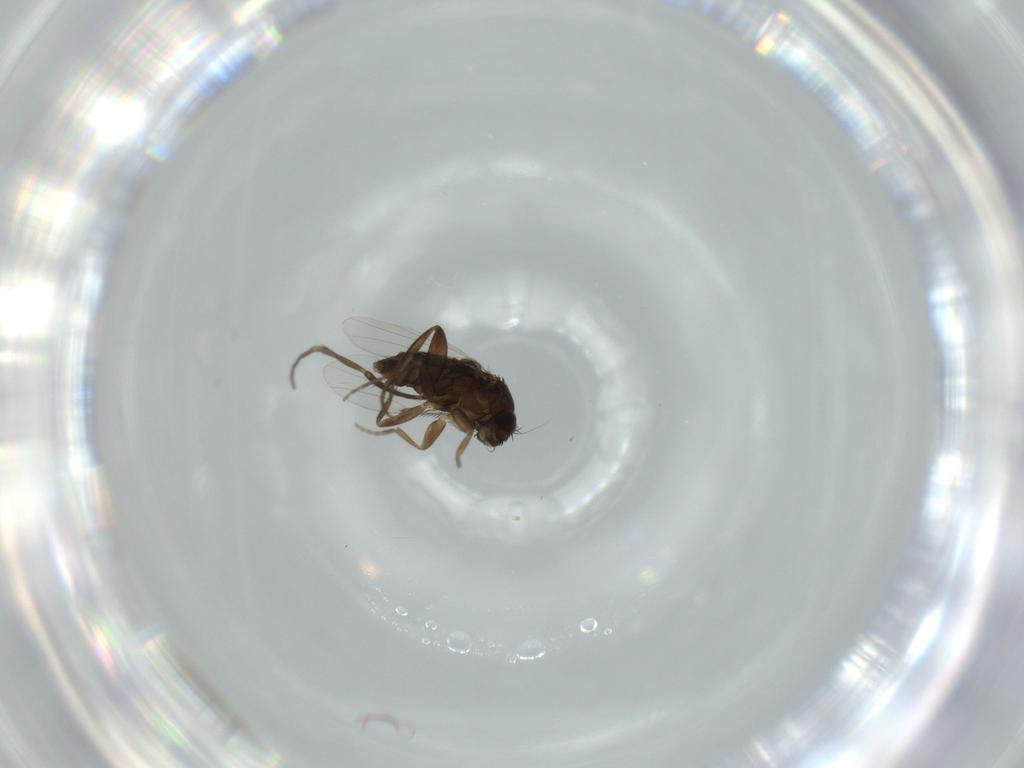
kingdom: Animalia
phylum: Arthropoda
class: Insecta
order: Diptera
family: Phoridae
